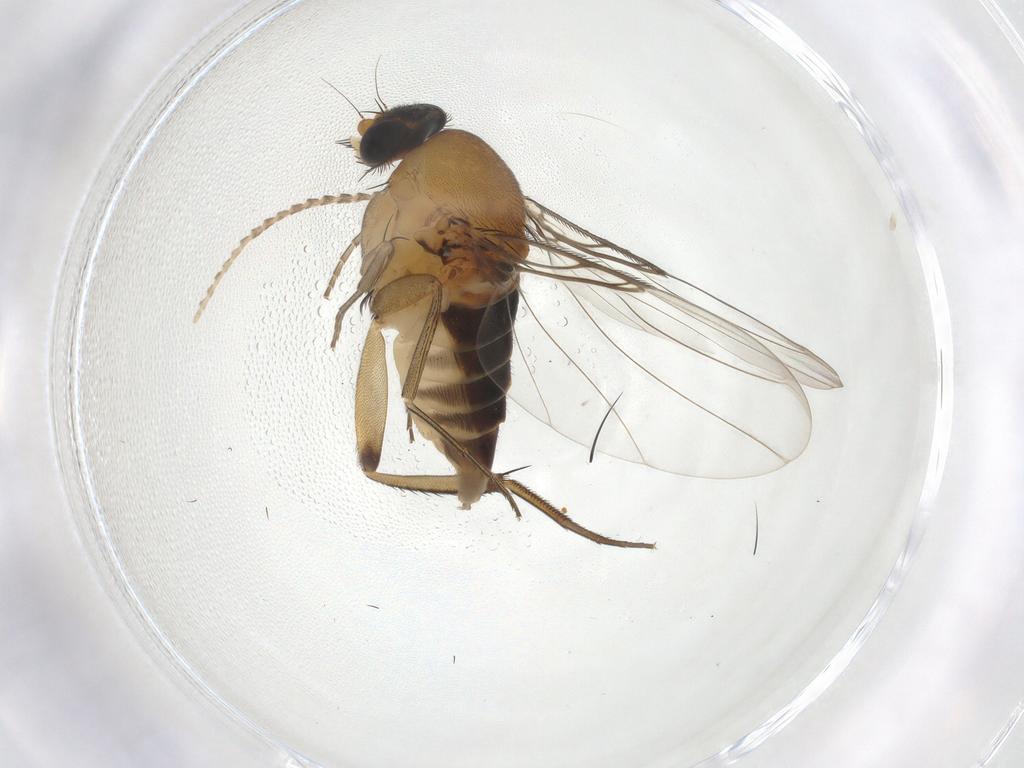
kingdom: Animalia
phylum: Arthropoda
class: Insecta
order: Diptera
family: Phoridae
